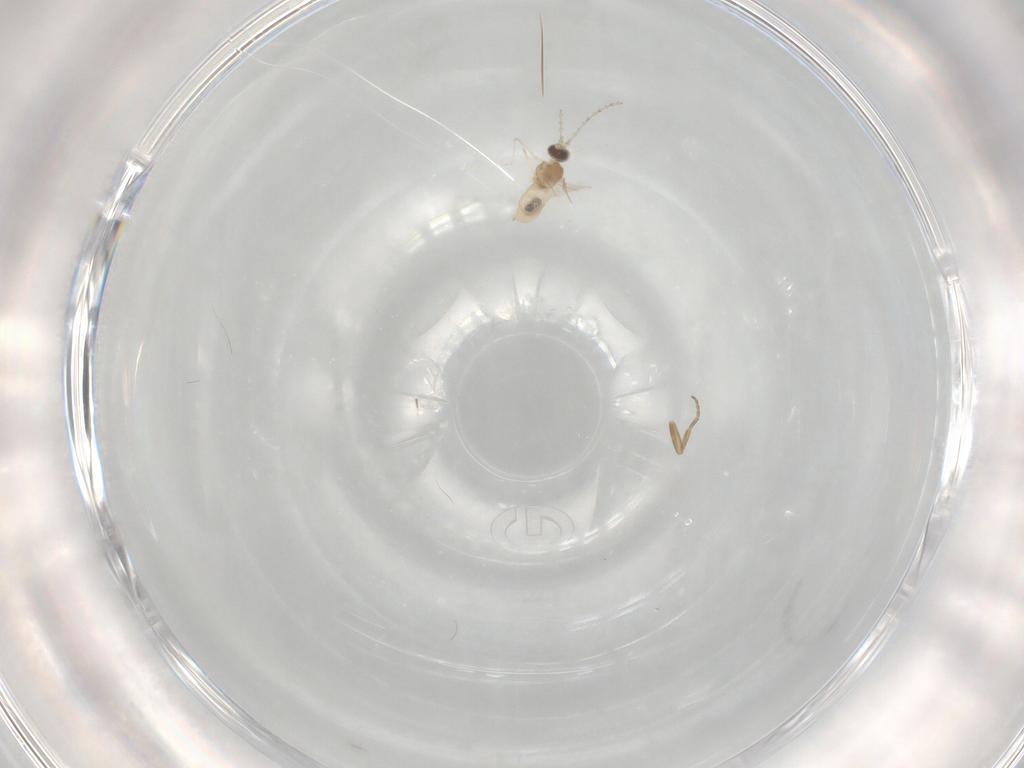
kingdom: Animalia
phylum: Arthropoda
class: Insecta
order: Diptera
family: Cecidomyiidae
